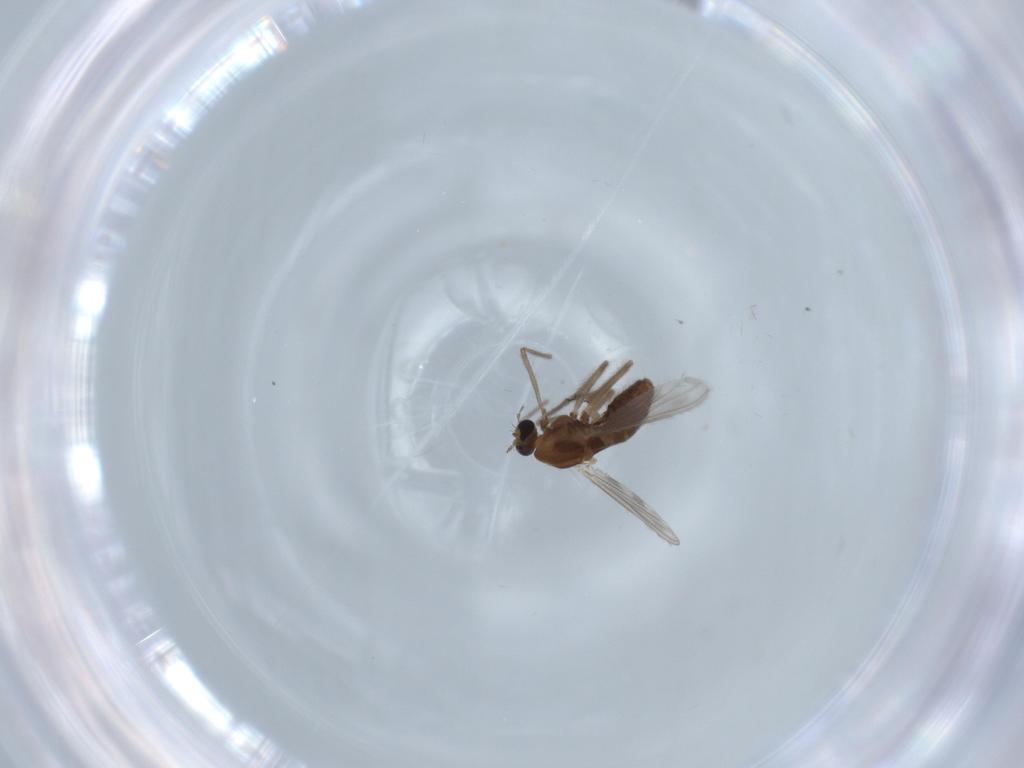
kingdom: Animalia
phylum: Arthropoda
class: Insecta
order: Diptera
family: Chironomidae
